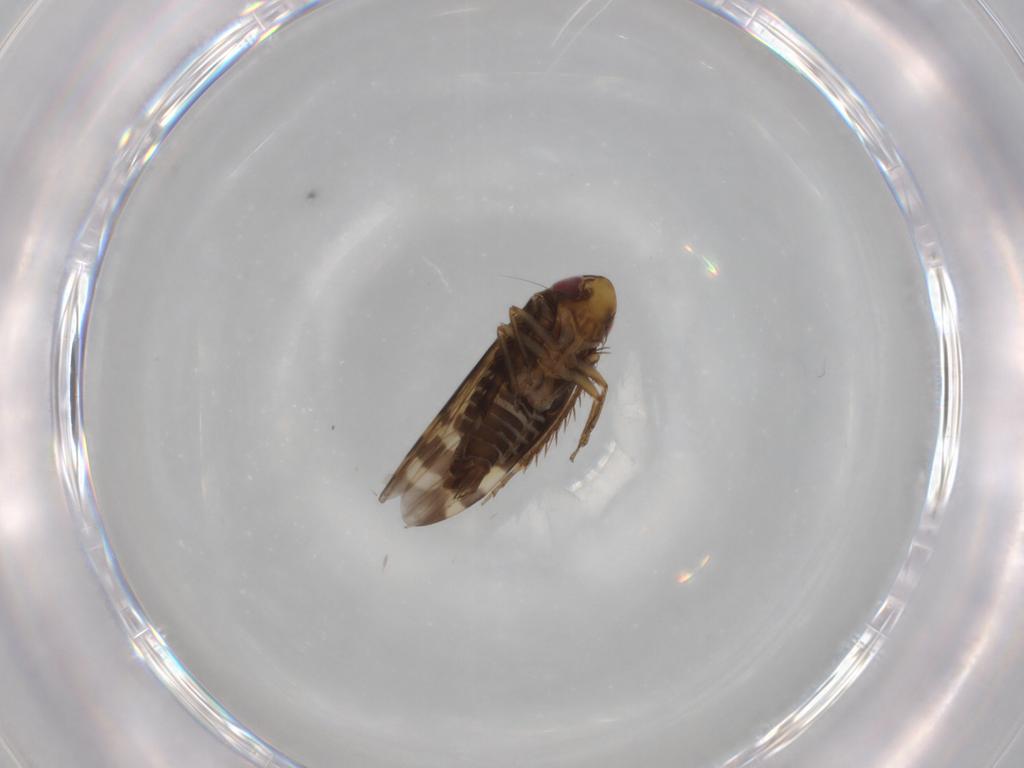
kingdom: Animalia
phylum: Arthropoda
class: Insecta
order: Hemiptera
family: Cicadellidae
